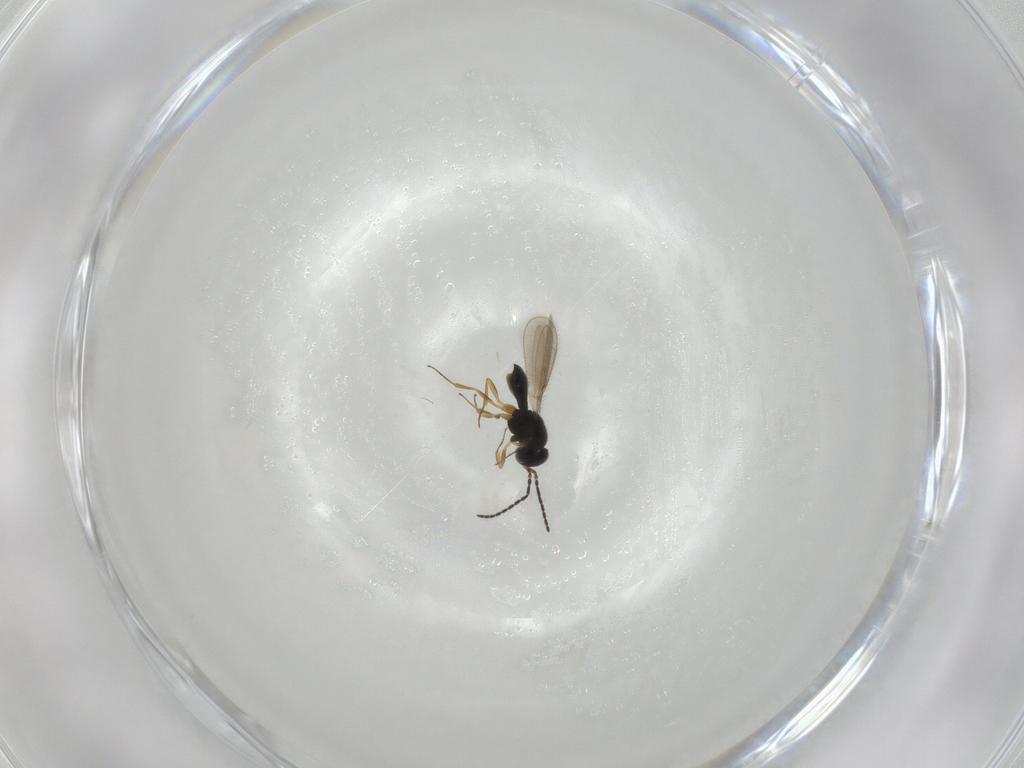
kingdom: Animalia
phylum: Arthropoda
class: Insecta
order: Hymenoptera
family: Scelionidae
